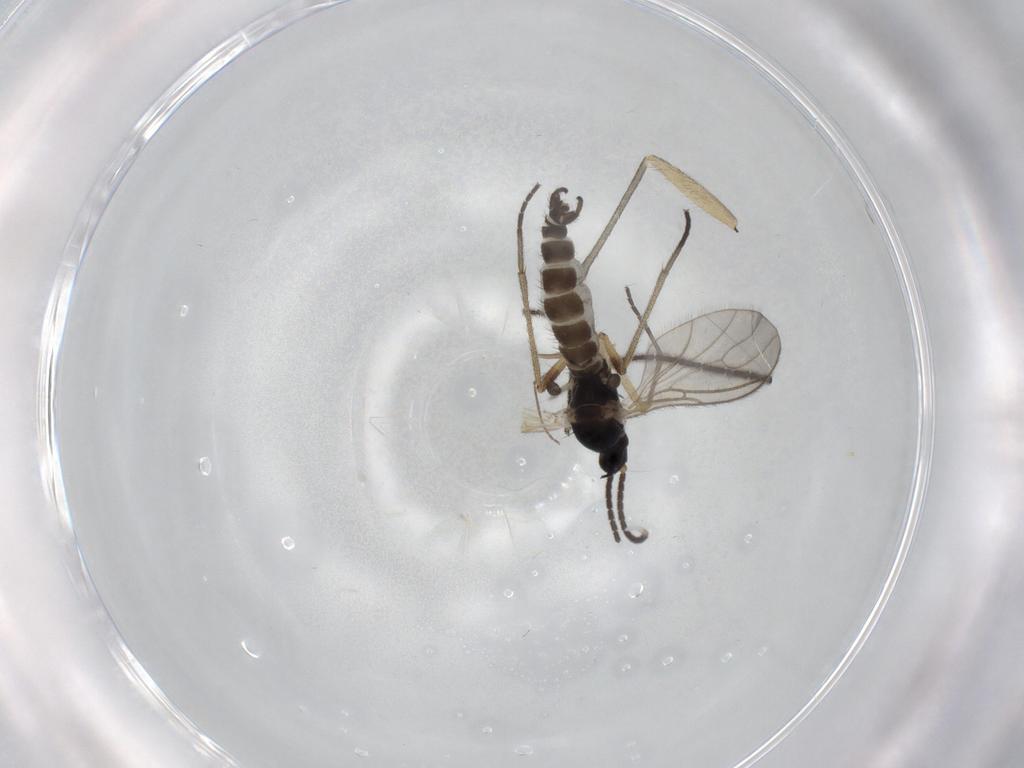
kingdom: Animalia
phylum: Arthropoda
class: Insecta
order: Diptera
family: Sciaridae
